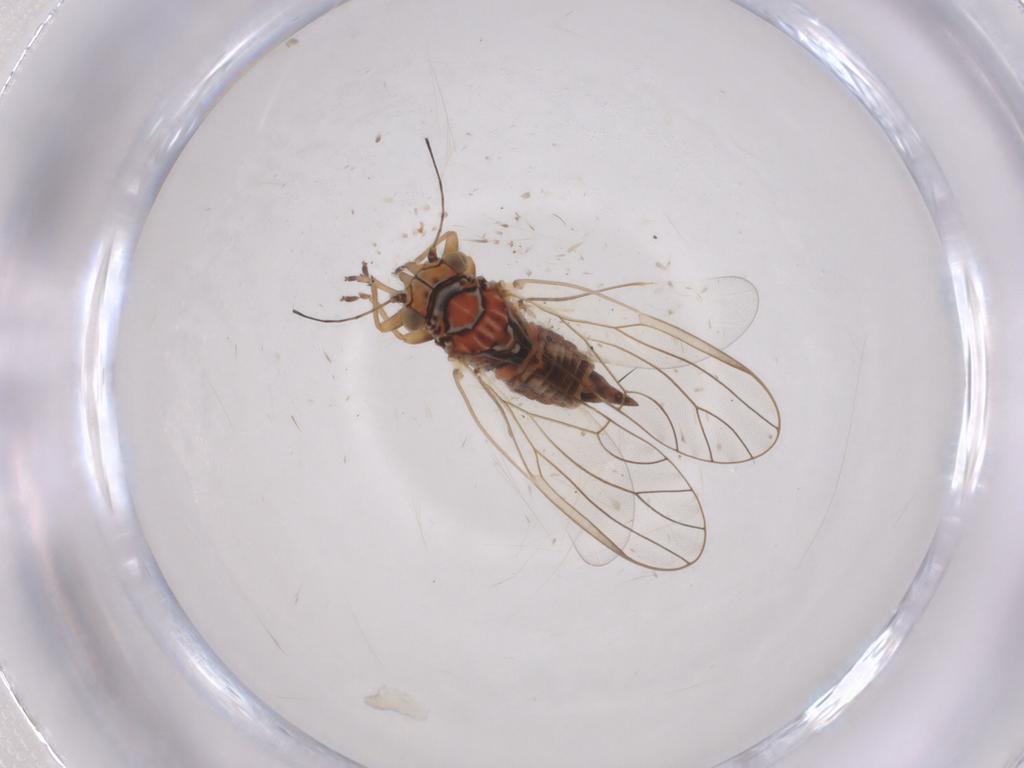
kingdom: Animalia
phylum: Arthropoda
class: Insecta
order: Hemiptera
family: Psyllidae
